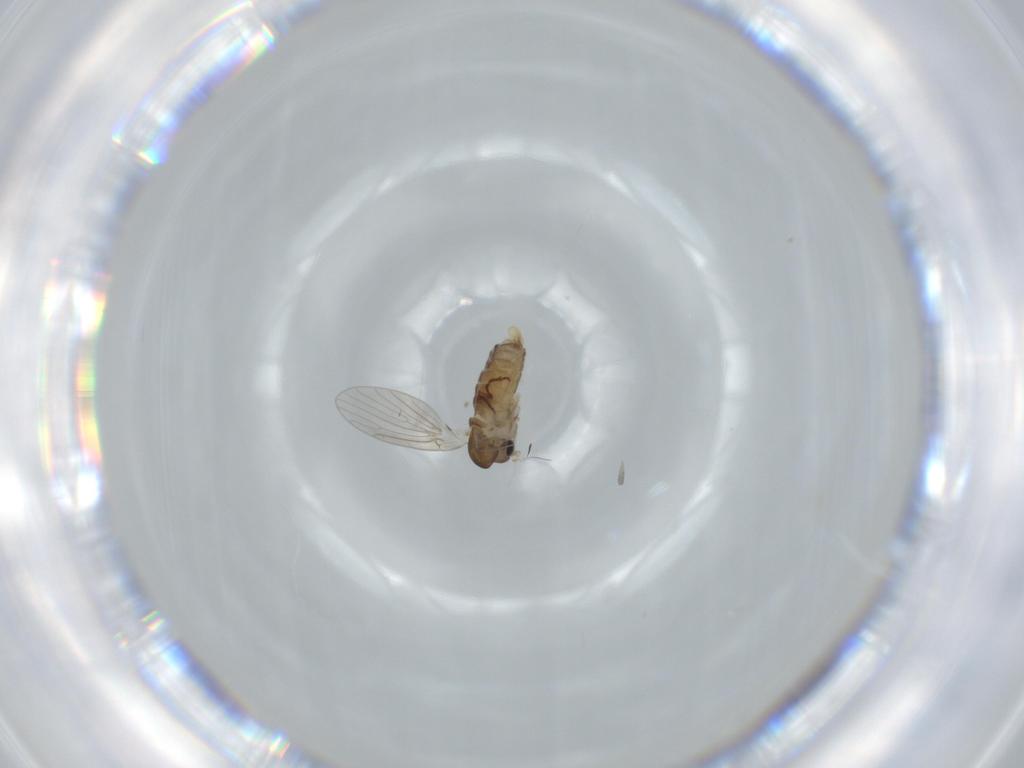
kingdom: Animalia
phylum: Arthropoda
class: Insecta
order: Diptera
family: Psychodidae
